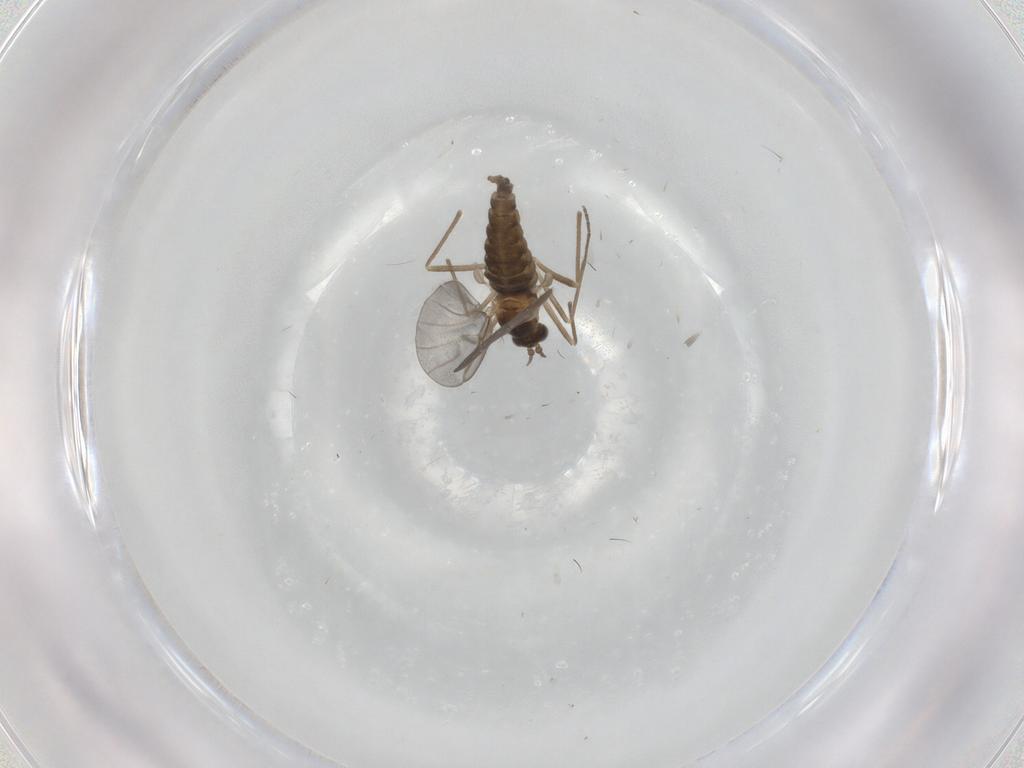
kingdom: Animalia
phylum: Arthropoda
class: Insecta
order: Diptera
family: Cecidomyiidae
